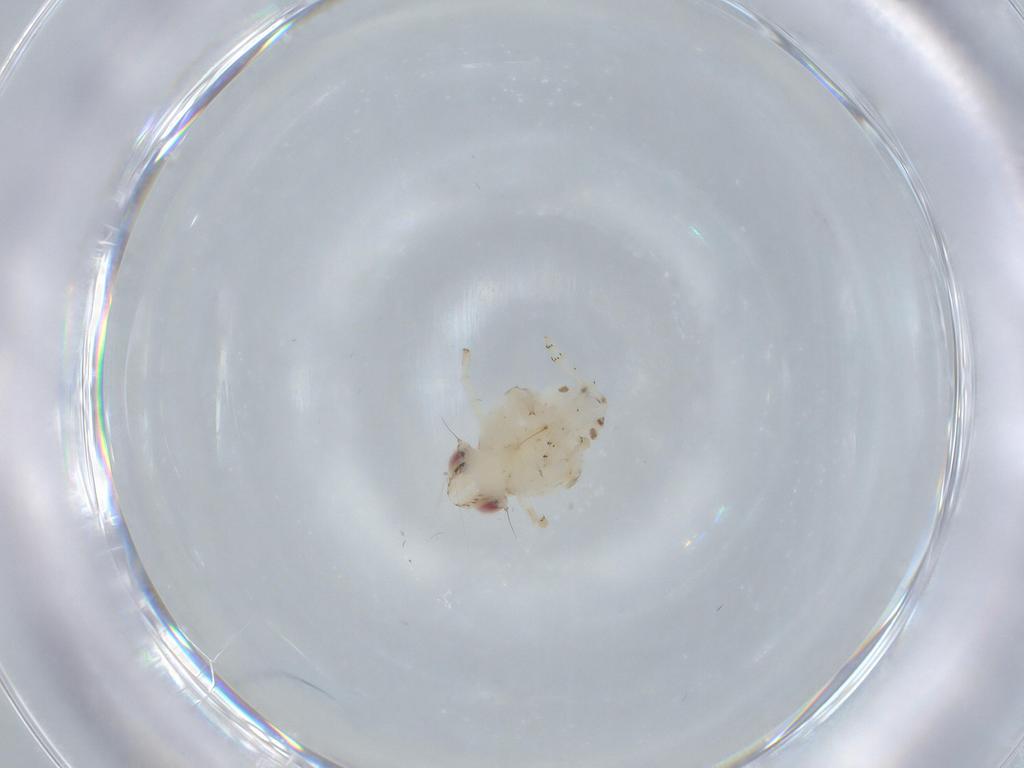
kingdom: Animalia
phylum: Arthropoda
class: Insecta
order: Hemiptera
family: Nogodinidae
